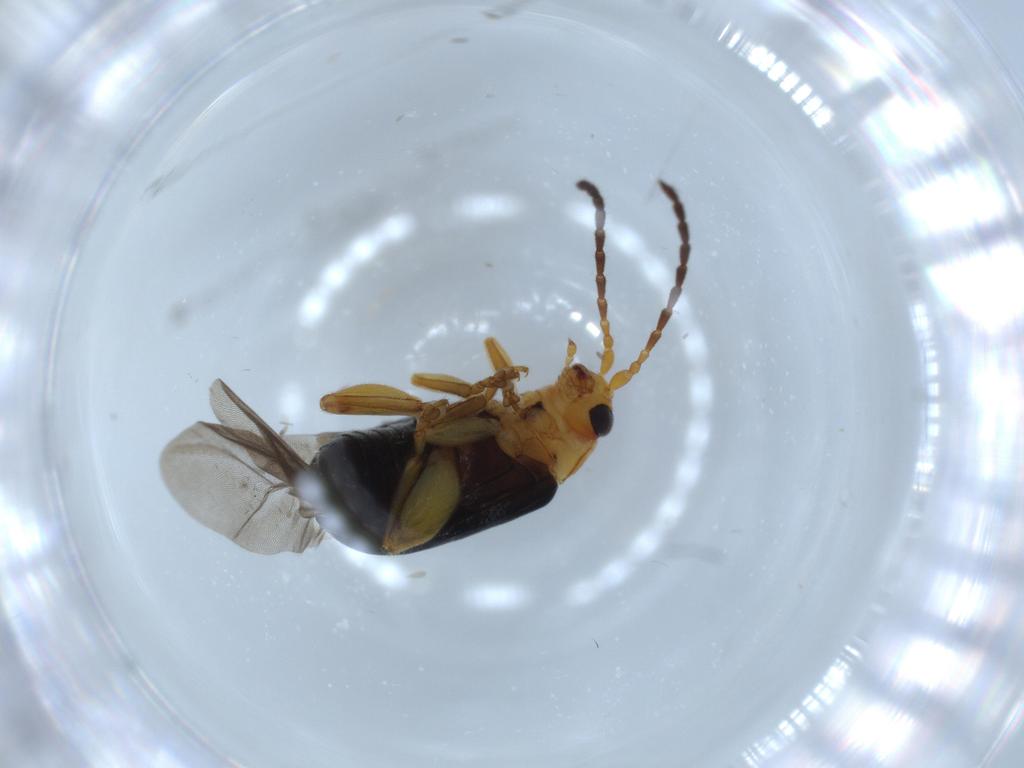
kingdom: Animalia
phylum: Arthropoda
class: Insecta
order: Coleoptera
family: Chrysomelidae
